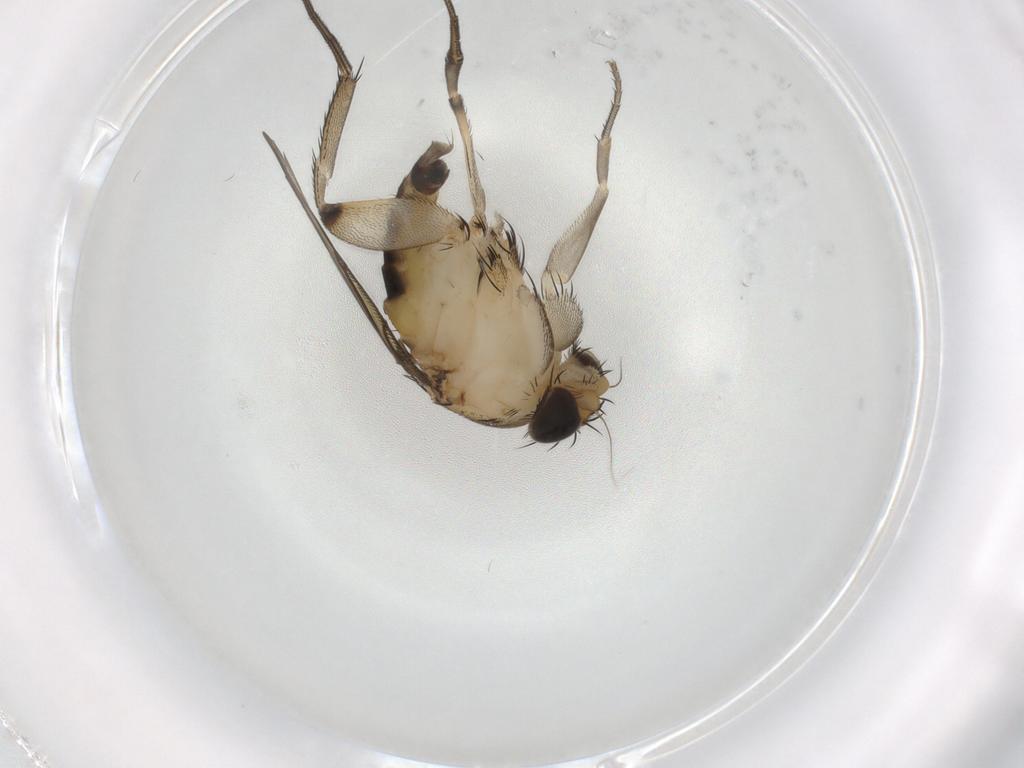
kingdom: Animalia
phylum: Arthropoda
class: Insecta
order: Diptera
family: Sciaridae
